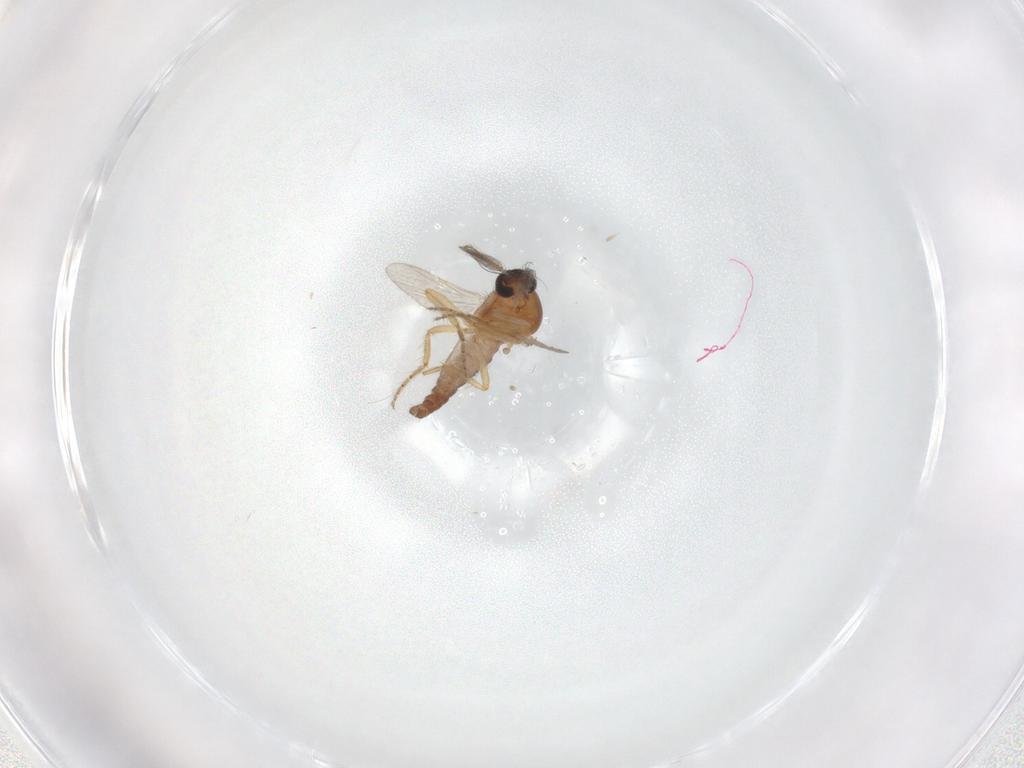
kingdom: Animalia
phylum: Arthropoda
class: Insecta
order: Diptera
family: Ceratopogonidae
